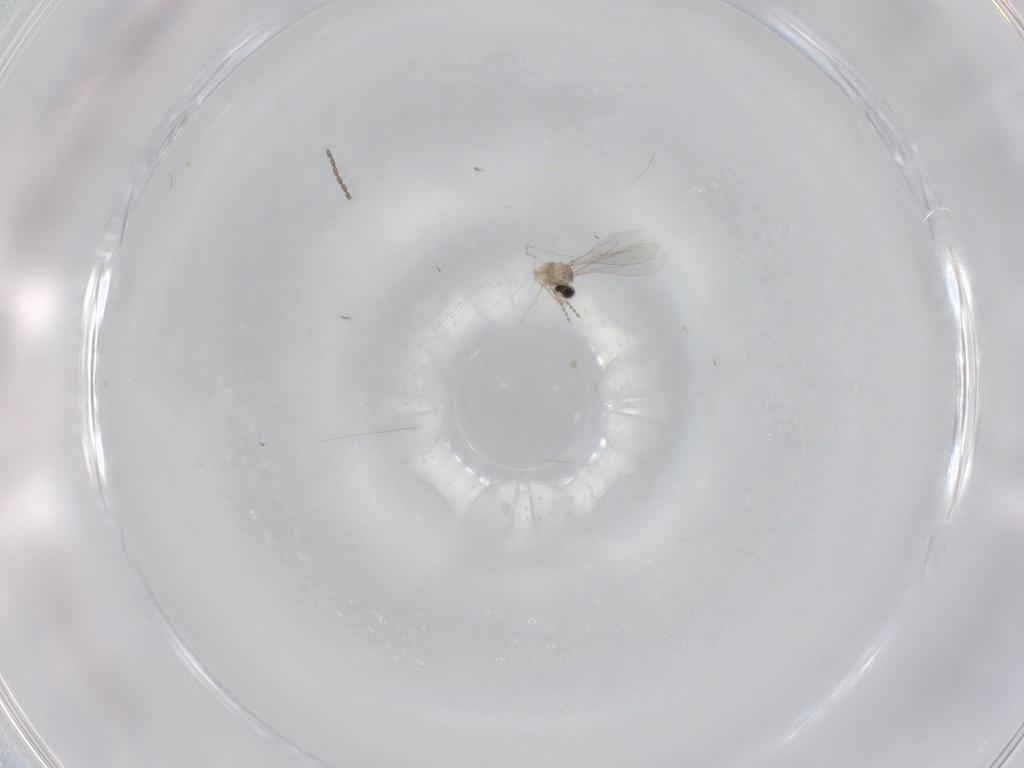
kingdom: Animalia
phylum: Arthropoda
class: Insecta
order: Diptera
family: Cecidomyiidae
